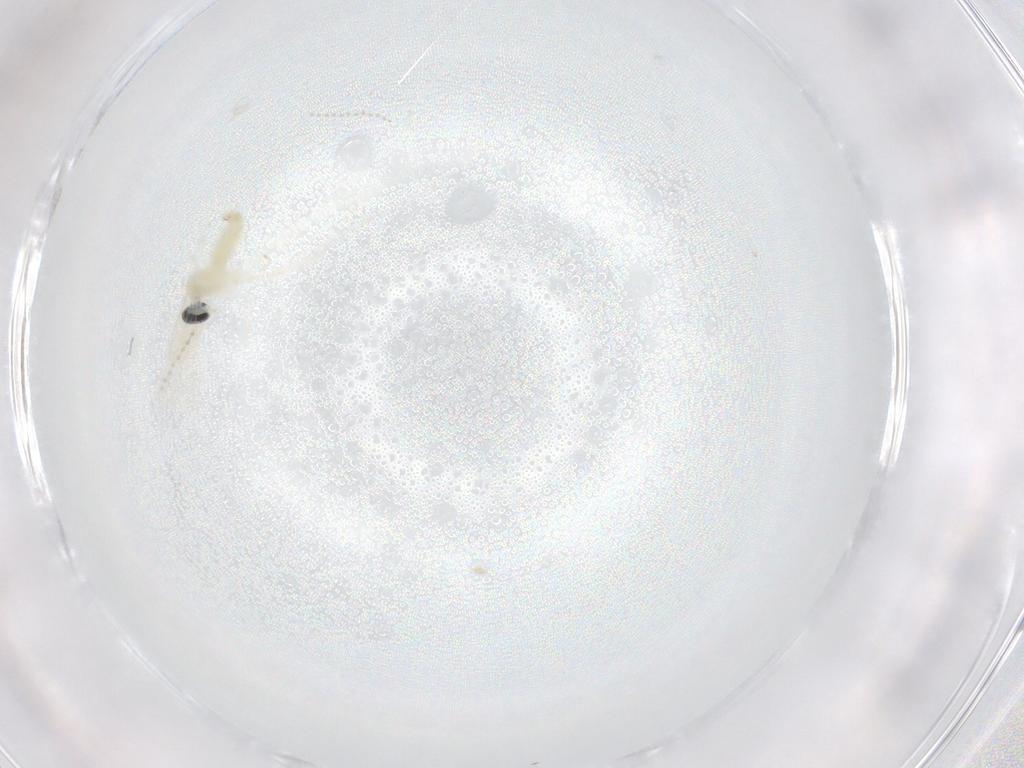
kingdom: Animalia
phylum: Arthropoda
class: Insecta
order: Diptera
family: Cecidomyiidae
